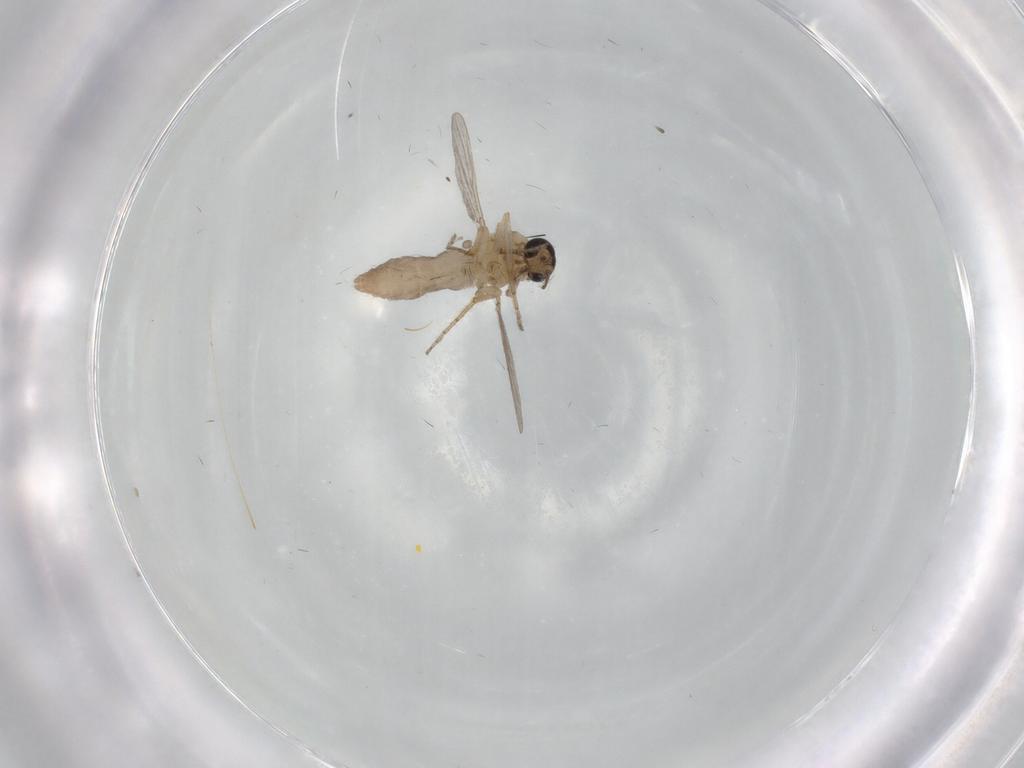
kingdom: Animalia
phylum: Arthropoda
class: Insecta
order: Diptera
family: Ceratopogonidae
